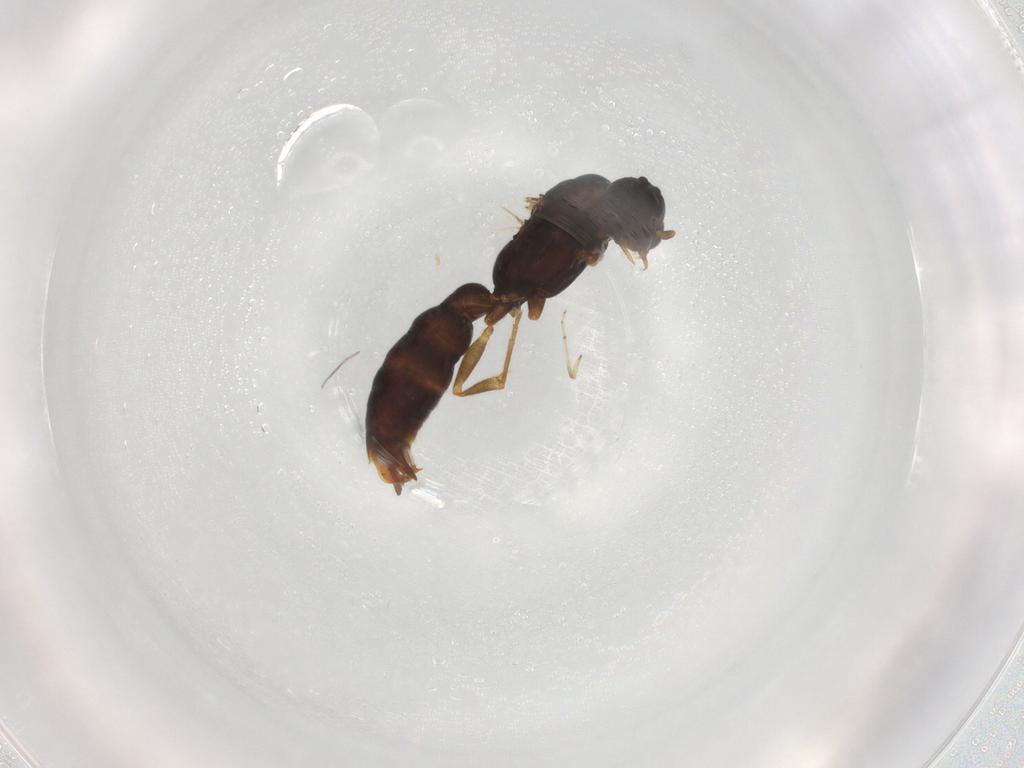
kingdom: Animalia
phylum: Arthropoda
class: Insecta
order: Hymenoptera
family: Formicidae
